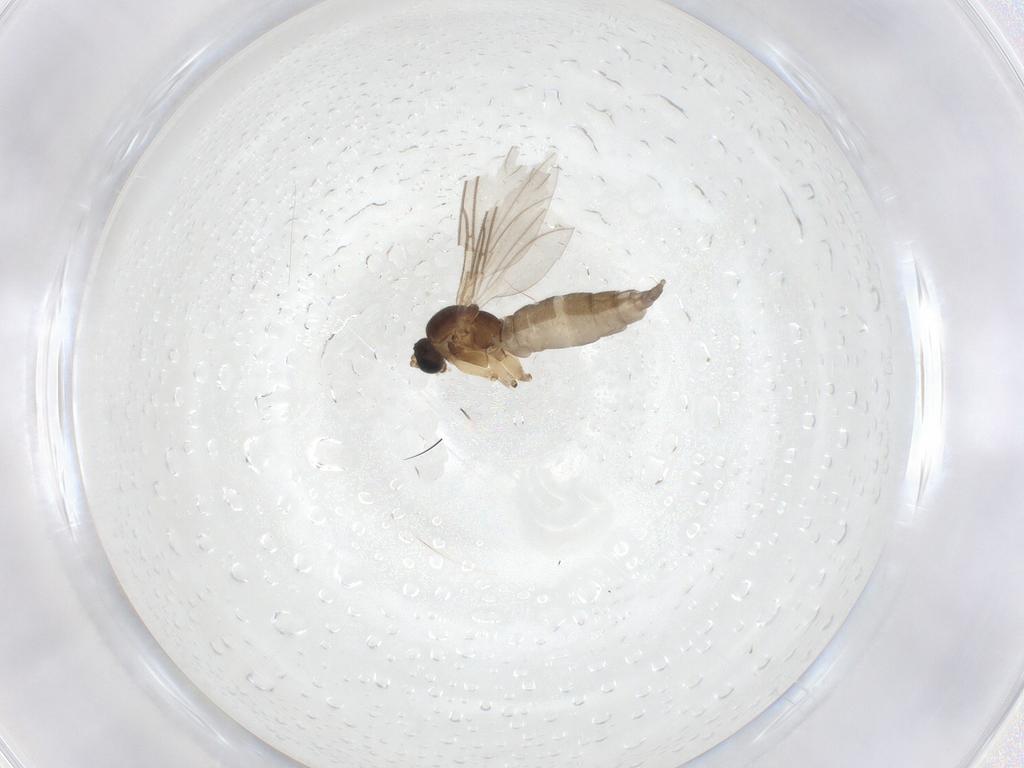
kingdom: Animalia
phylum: Arthropoda
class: Insecta
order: Diptera
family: Sciaridae
